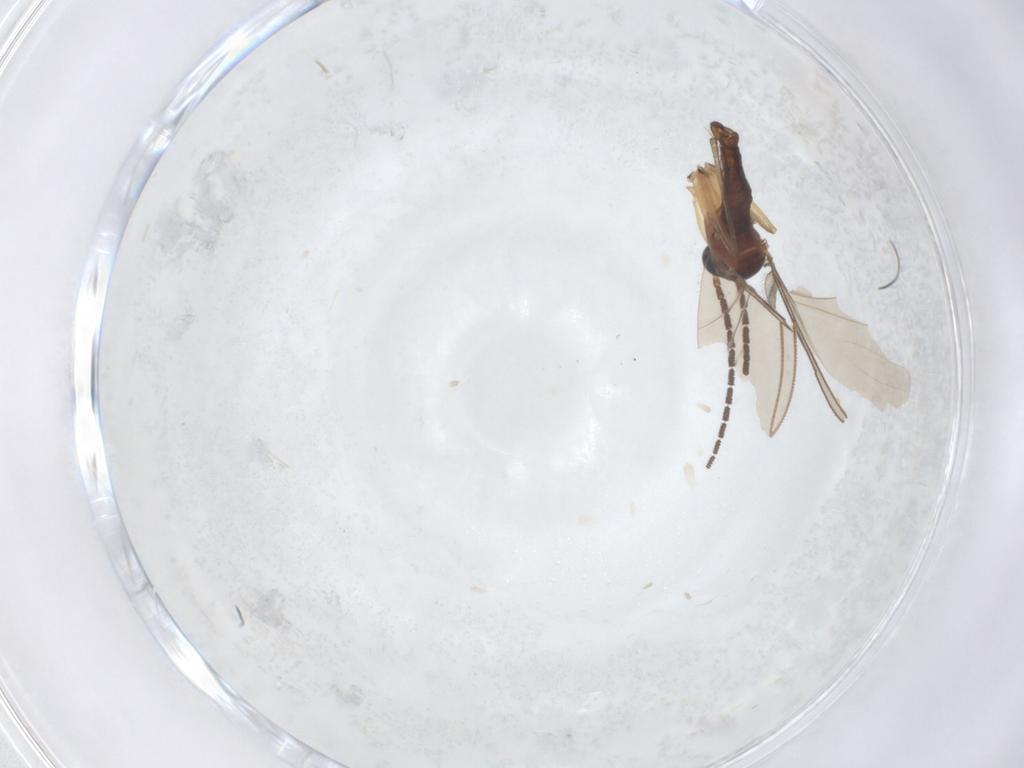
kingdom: Animalia
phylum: Arthropoda
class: Insecta
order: Diptera
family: Sciaridae
